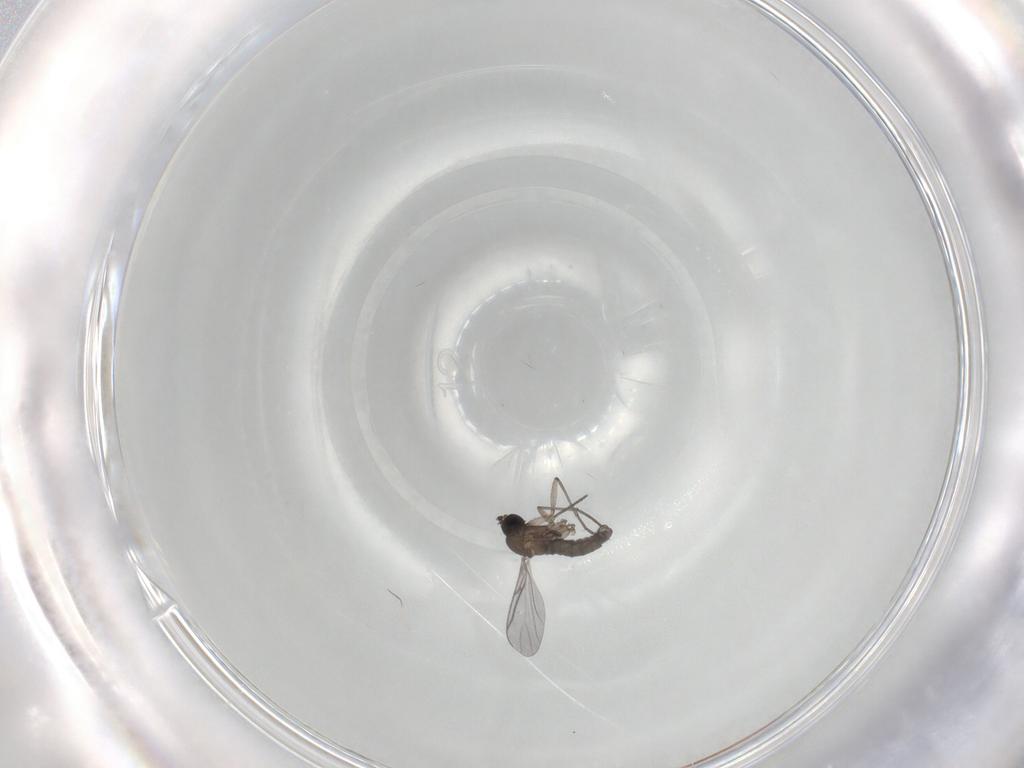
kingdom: Animalia
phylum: Arthropoda
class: Insecta
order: Diptera
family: Sciaridae
